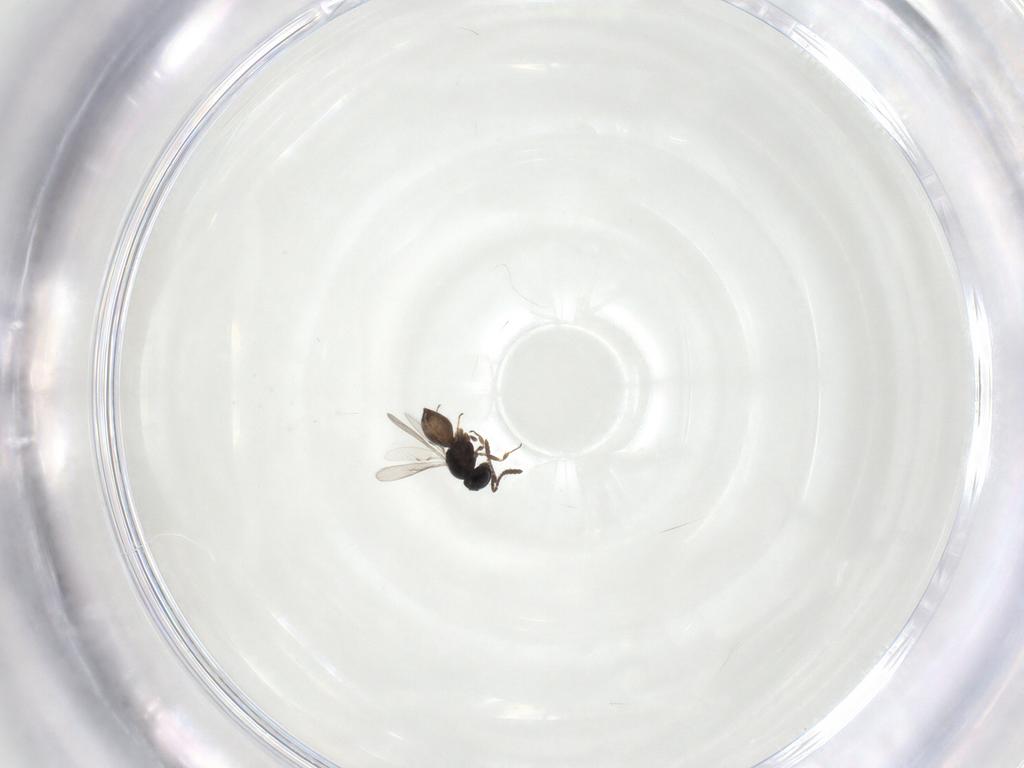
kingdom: Animalia
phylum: Arthropoda
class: Insecta
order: Hymenoptera
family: Scelionidae
